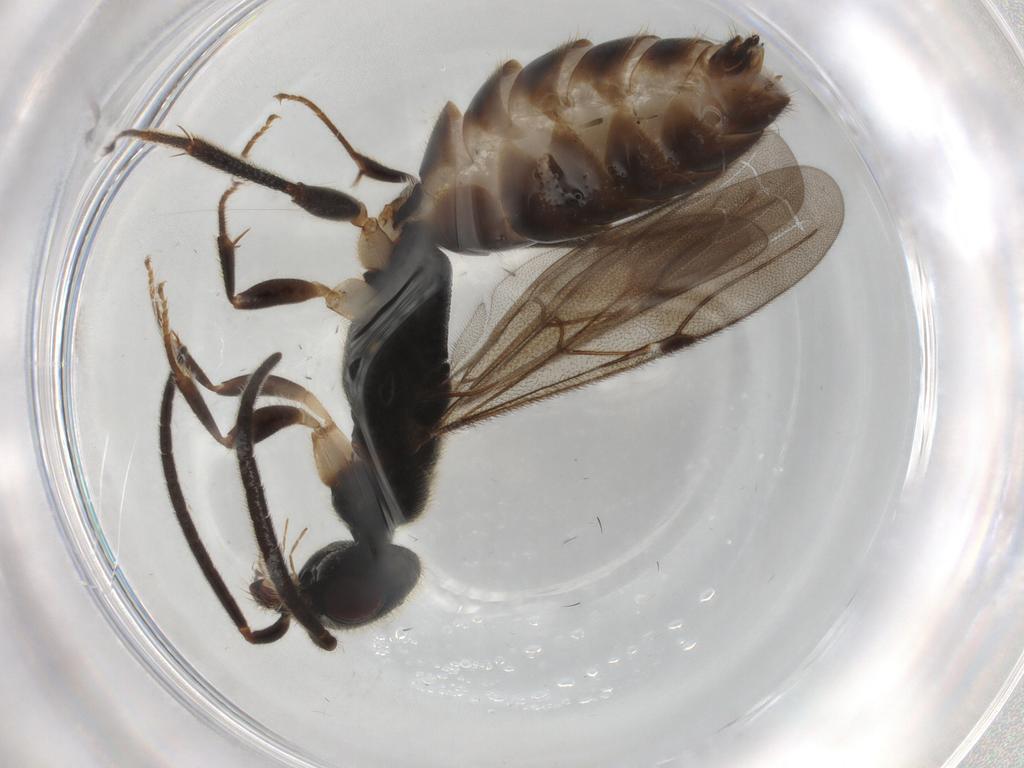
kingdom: Animalia
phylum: Arthropoda
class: Insecta
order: Hymenoptera
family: Bethylidae
